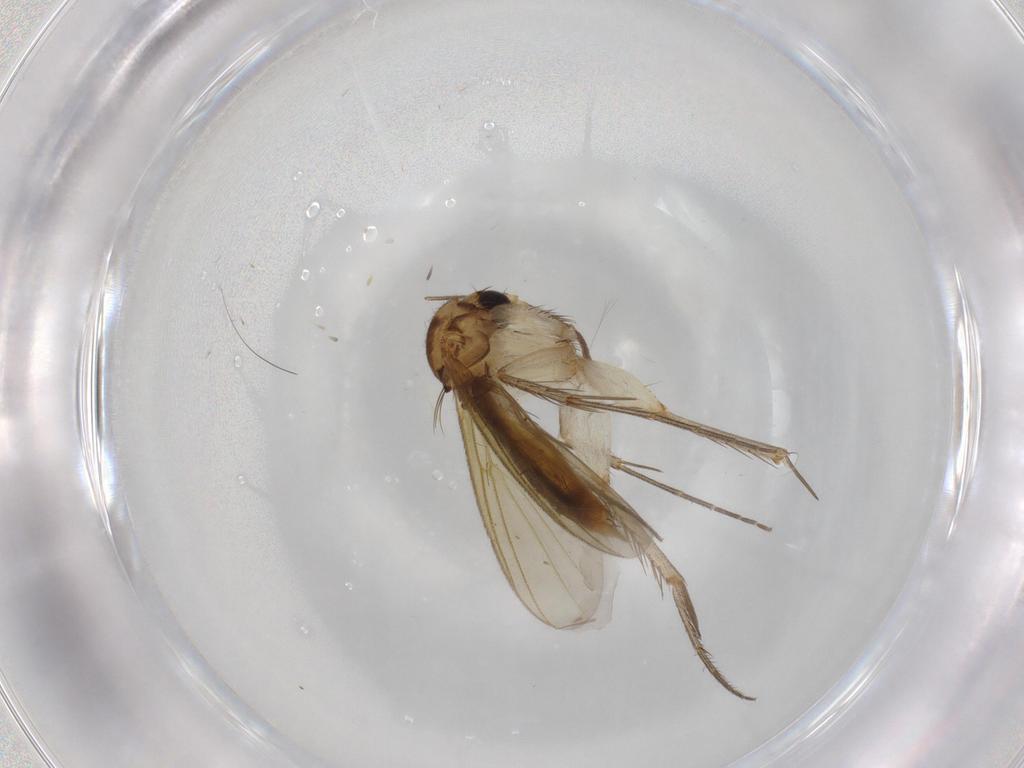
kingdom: Animalia
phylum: Arthropoda
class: Insecta
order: Diptera
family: Mycetophilidae
